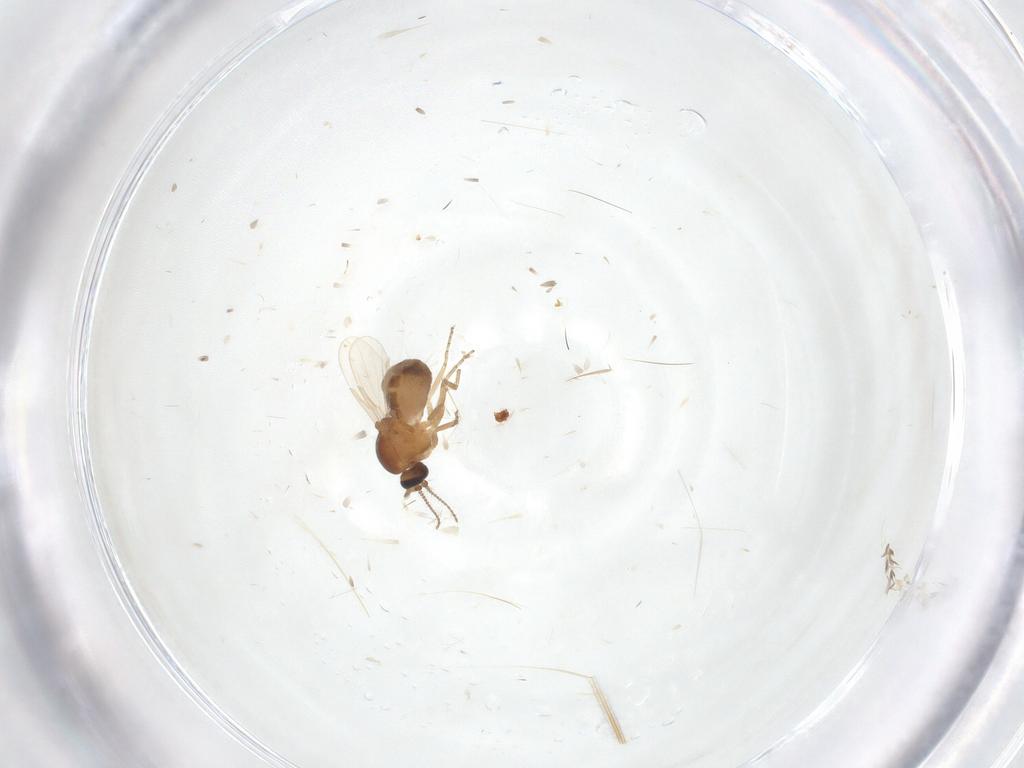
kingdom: Animalia
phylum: Arthropoda
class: Insecta
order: Diptera
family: Ceratopogonidae
